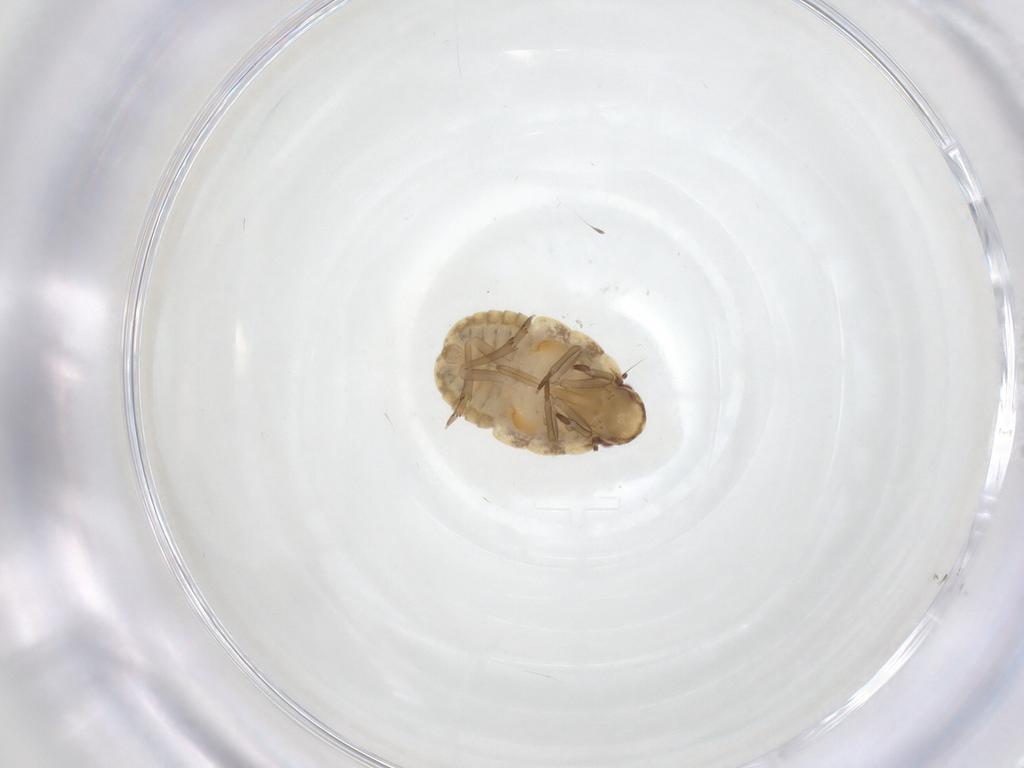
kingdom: Animalia
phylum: Arthropoda
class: Insecta
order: Hemiptera
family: Flatidae
